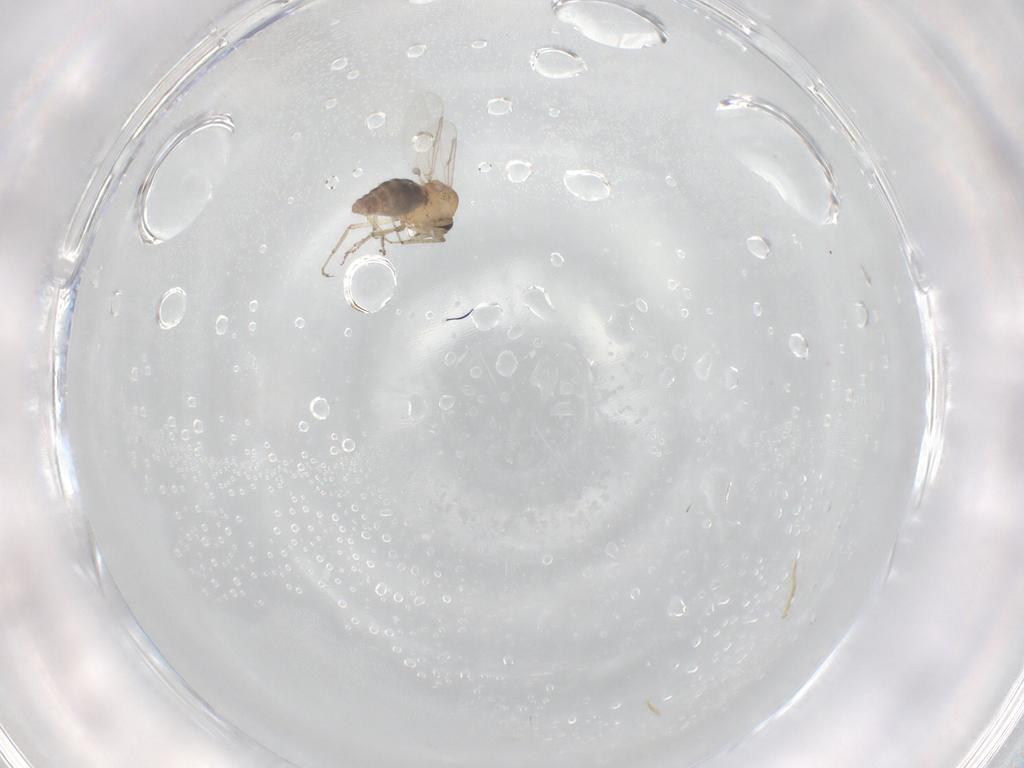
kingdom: Animalia
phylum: Arthropoda
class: Insecta
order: Diptera
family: Ceratopogonidae
